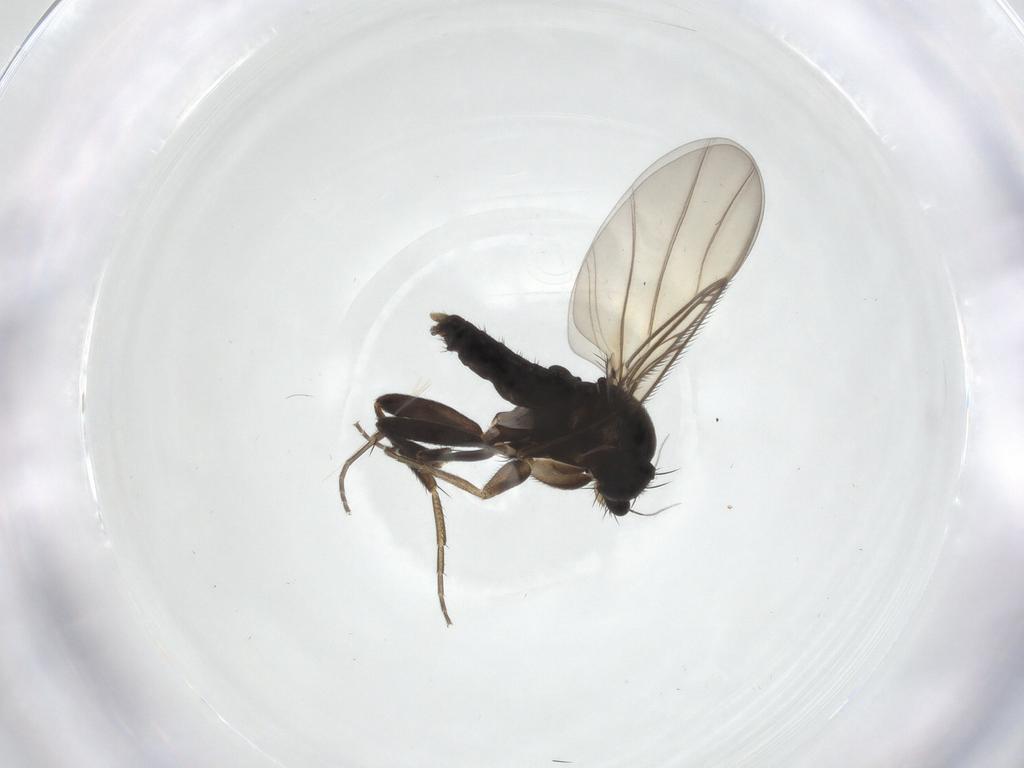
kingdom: Animalia
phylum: Arthropoda
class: Insecta
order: Diptera
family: Phoridae
